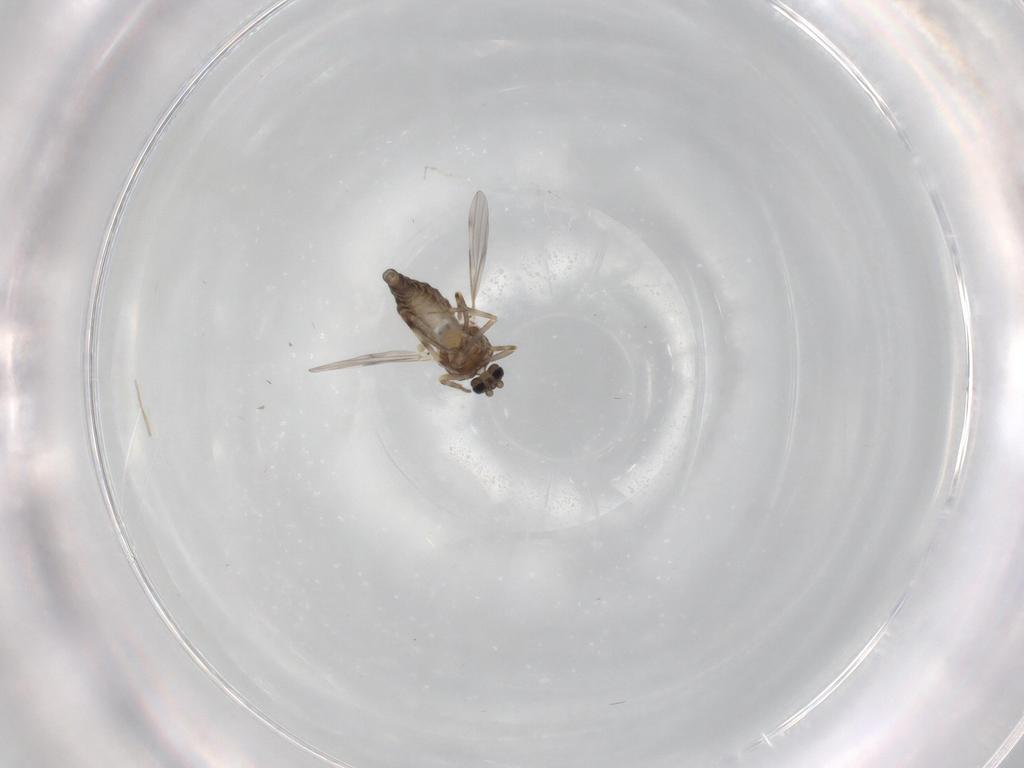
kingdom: Animalia
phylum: Arthropoda
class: Insecta
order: Diptera
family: Ceratopogonidae
